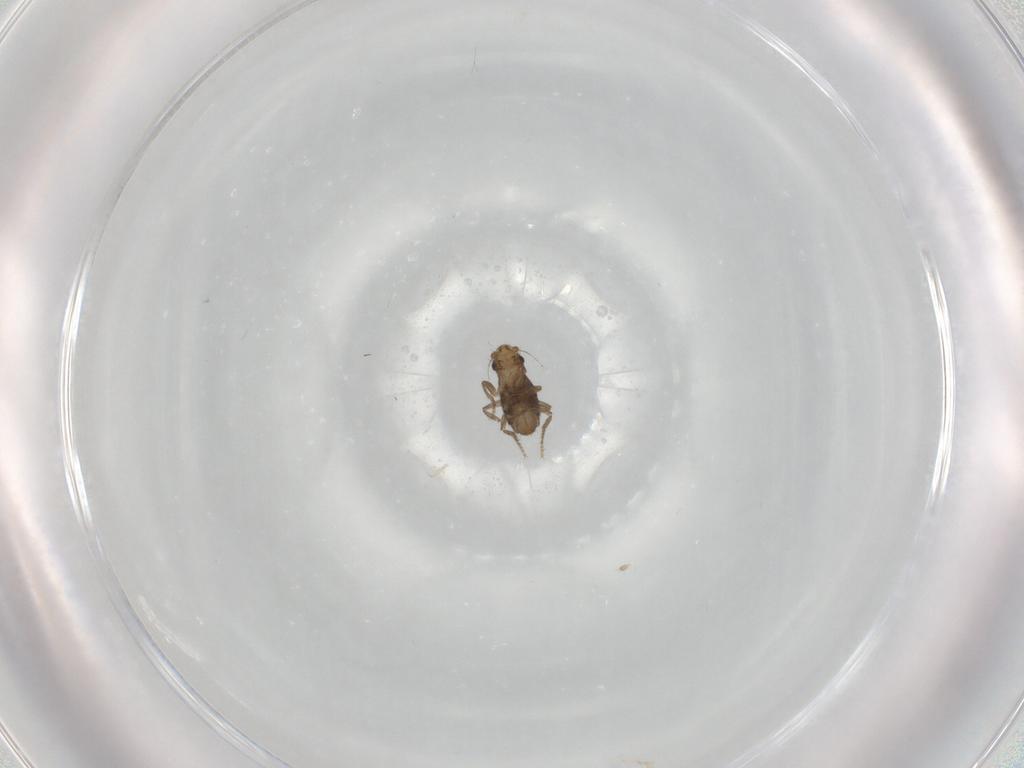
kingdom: Animalia
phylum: Arthropoda
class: Insecta
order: Diptera
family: Phoridae
